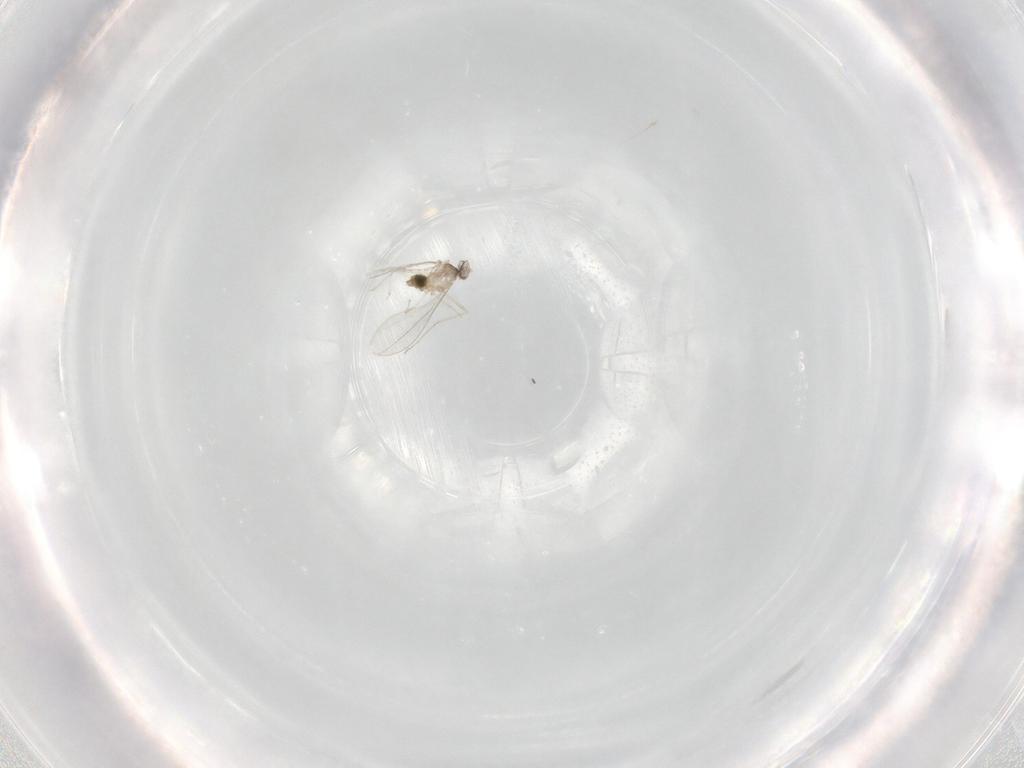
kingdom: Animalia
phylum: Arthropoda
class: Insecta
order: Diptera
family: Cecidomyiidae
